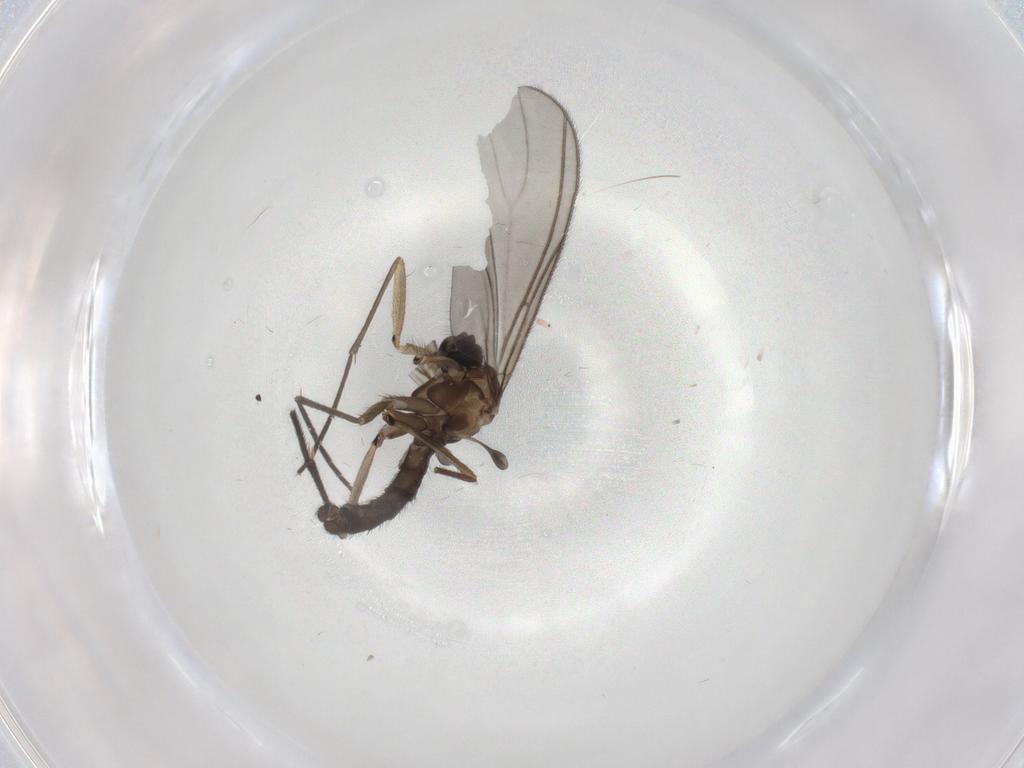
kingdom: Animalia
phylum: Arthropoda
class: Insecta
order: Diptera
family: Sciaridae
